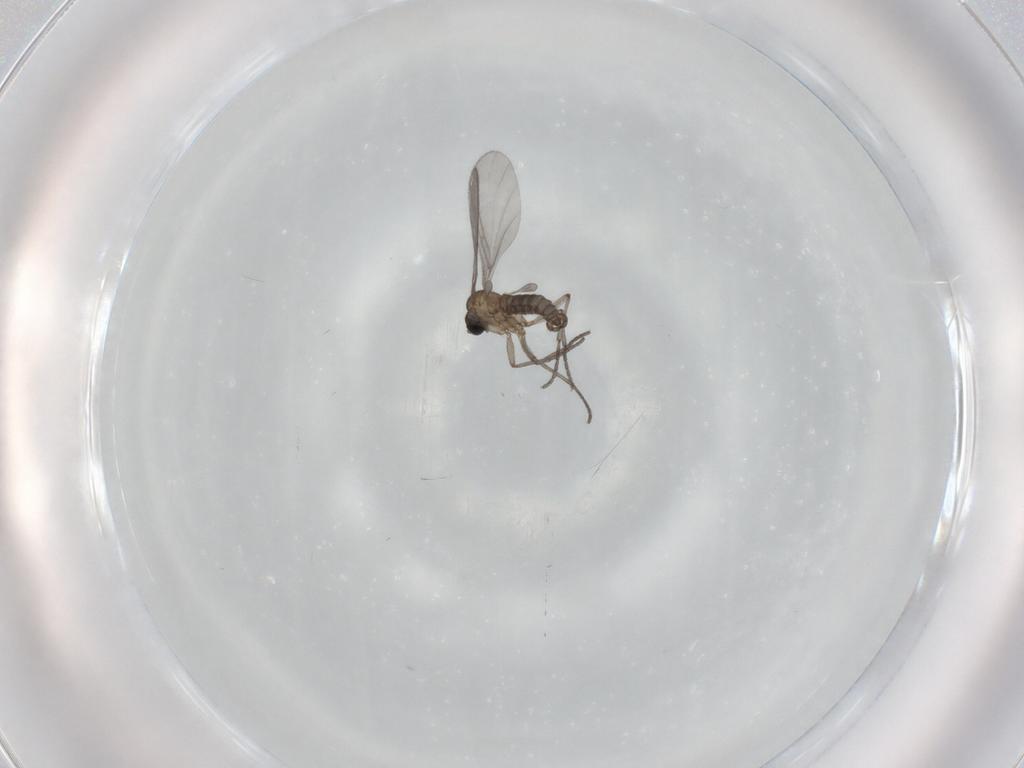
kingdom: Animalia
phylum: Arthropoda
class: Insecta
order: Diptera
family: Sciaridae
